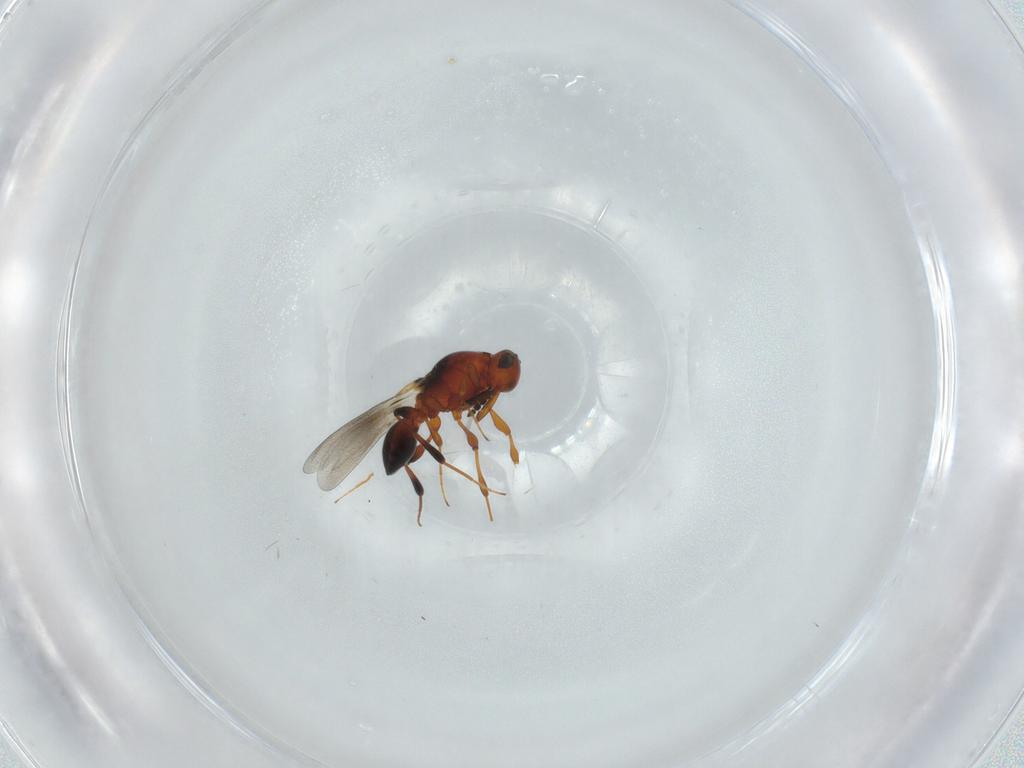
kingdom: Animalia
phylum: Arthropoda
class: Insecta
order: Hymenoptera
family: Platygastridae
